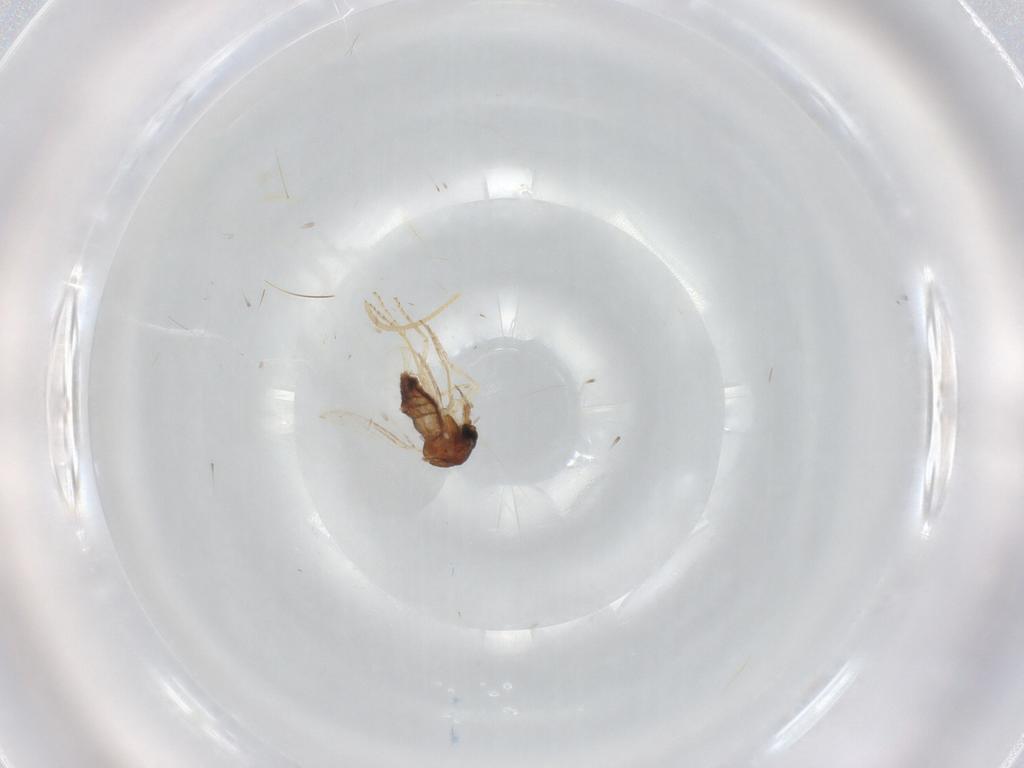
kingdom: Animalia
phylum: Arthropoda
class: Insecta
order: Diptera
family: Ceratopogonidae
